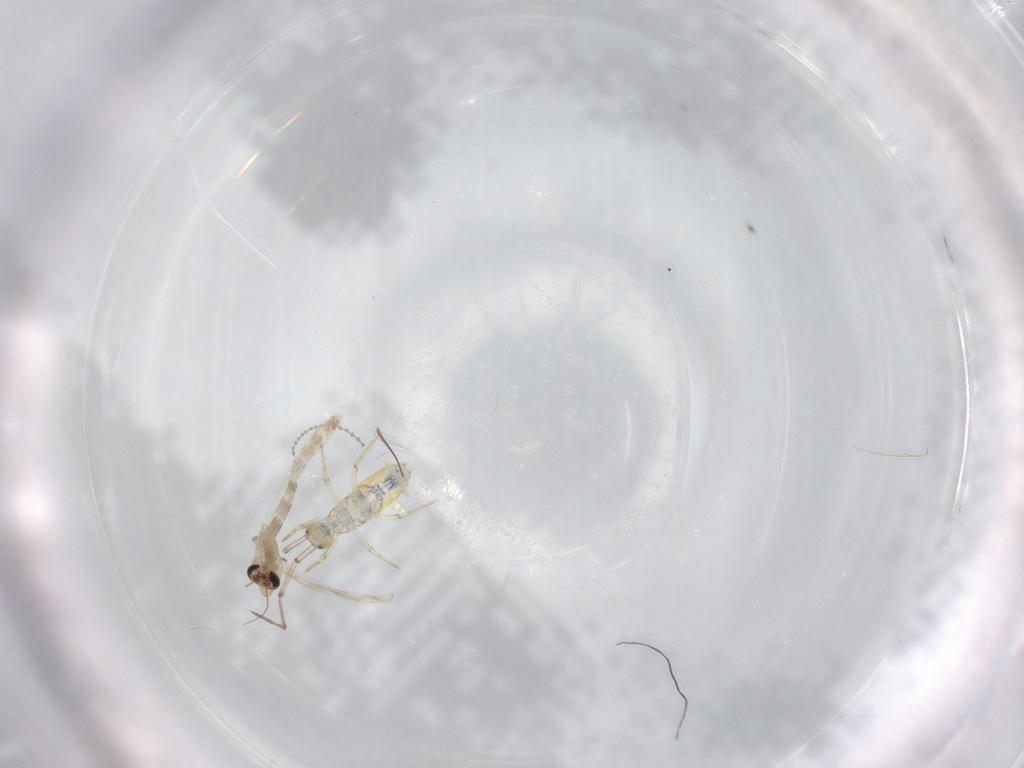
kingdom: Animalia
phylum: Arthropoda
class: Insecta
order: Diptera
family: Chironomidae
